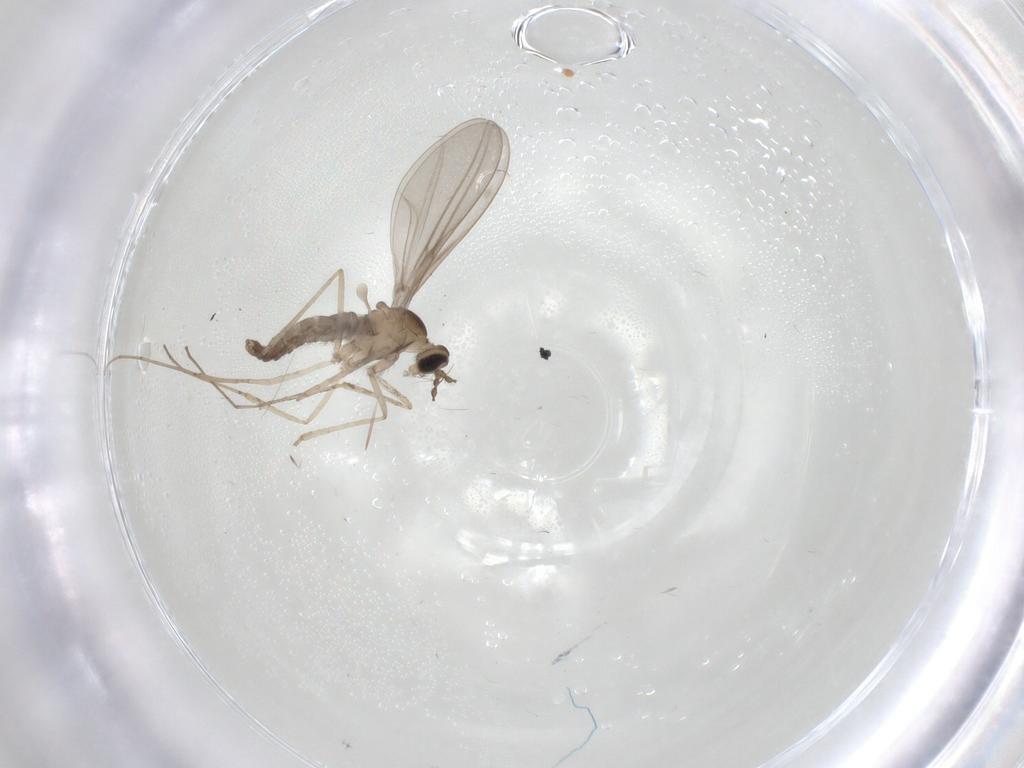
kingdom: Animalia
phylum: Arthropoda
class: Insecta
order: Diptera
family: Cecidomyiidae
